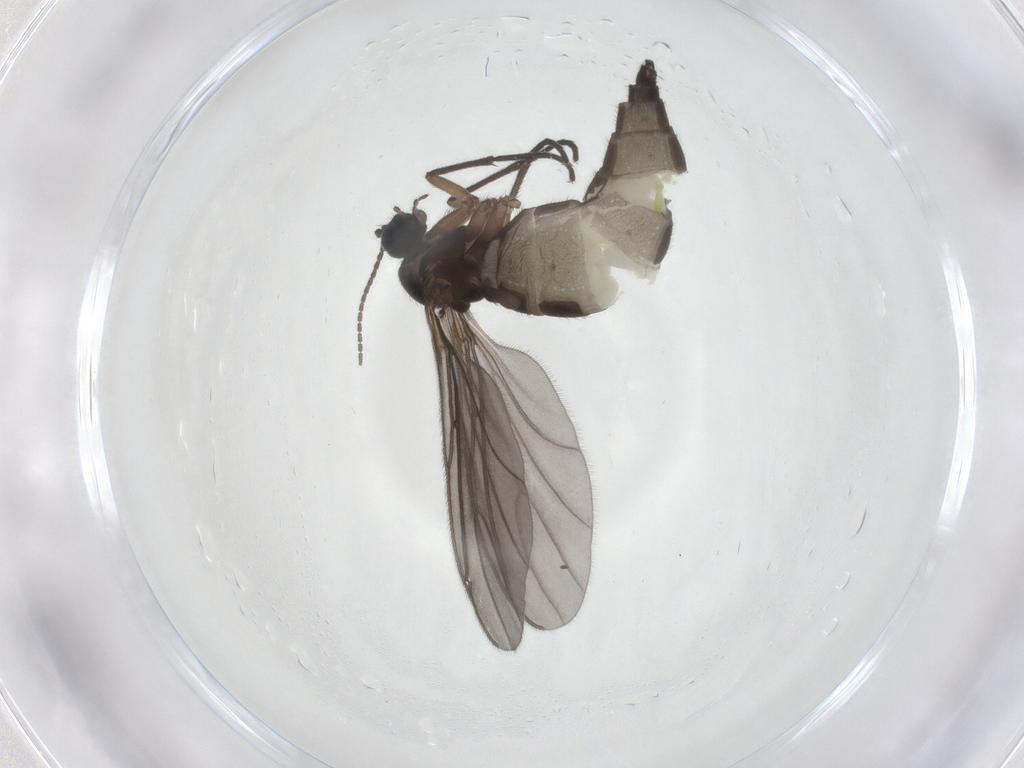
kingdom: Animalia
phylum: Arthropoda
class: Insecta
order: Diptera
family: Sciaridae
